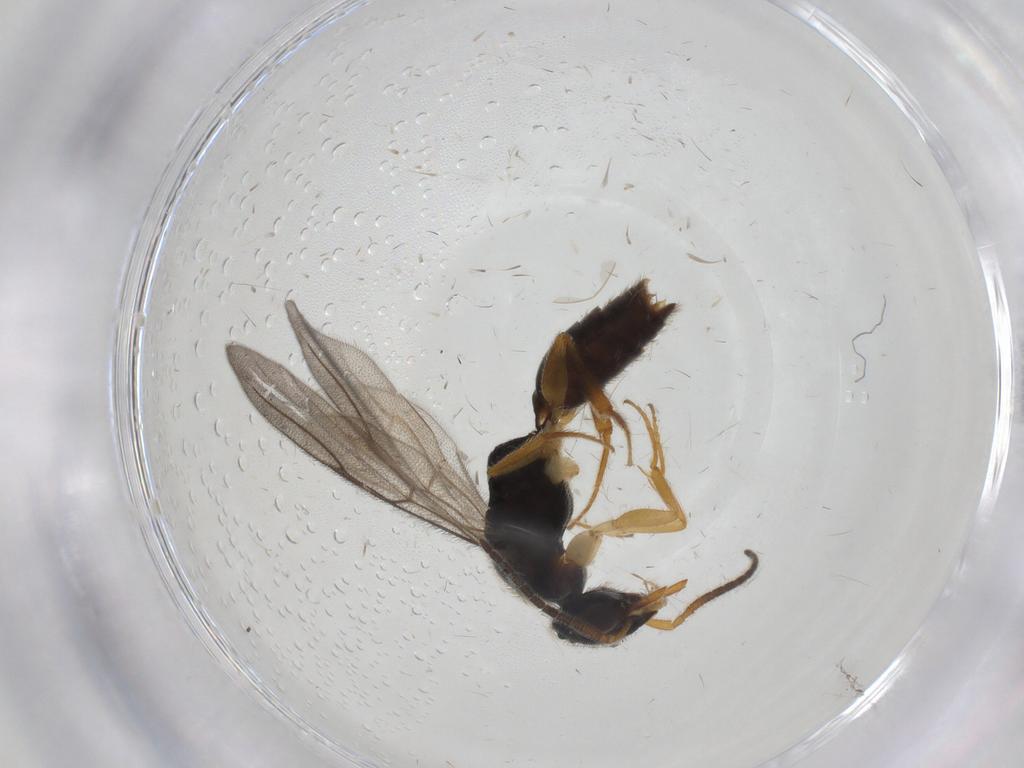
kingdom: Animalia
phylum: Arthropoda
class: Insecta
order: Hymenoptera
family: Bethylidae
